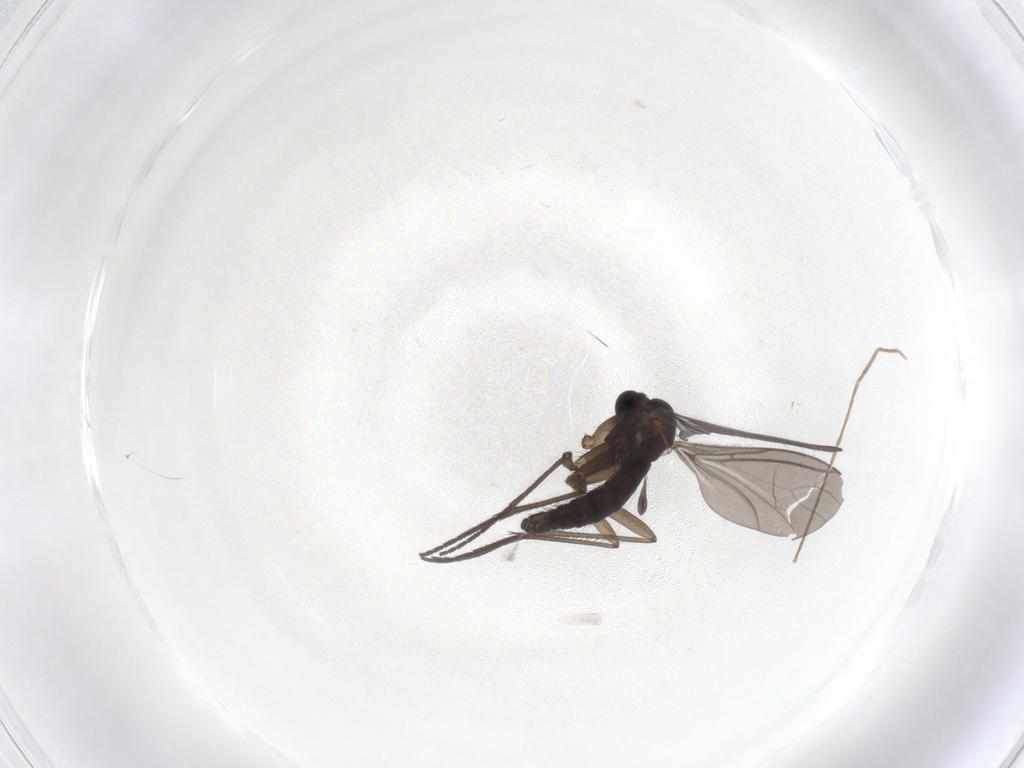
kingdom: Animalia
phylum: Arthropoda
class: Insecta
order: Diptera
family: Sciaridae
